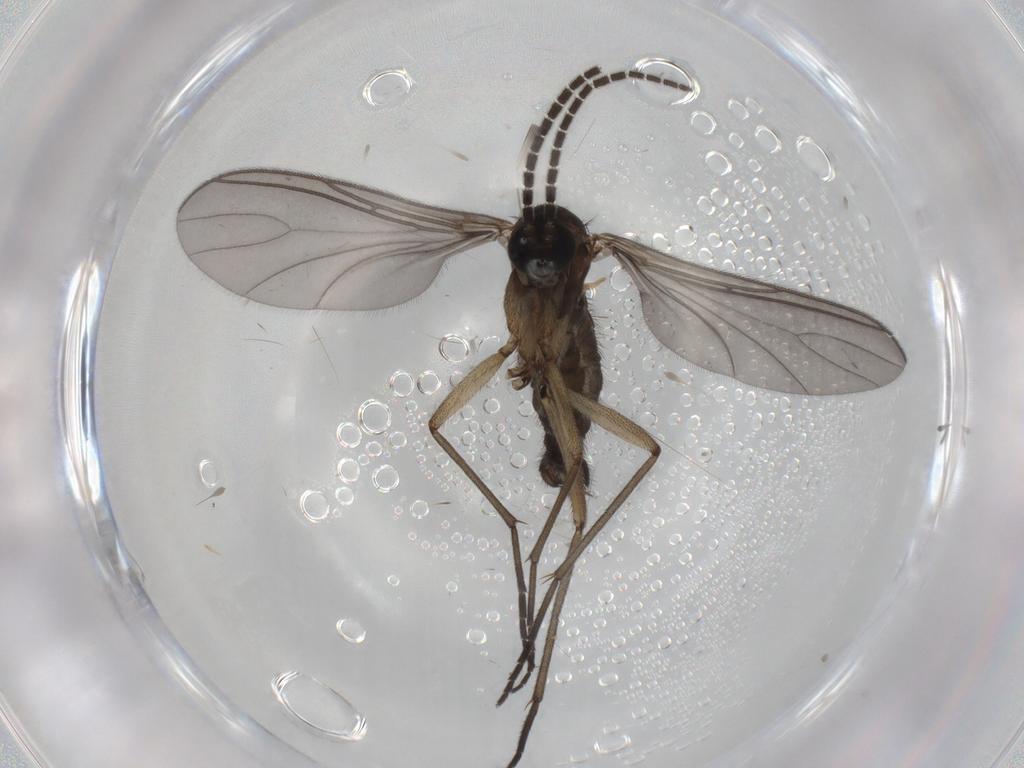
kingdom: Animalia
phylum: Arthropoda
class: Insecta
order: Diptera
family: Sciaridae
